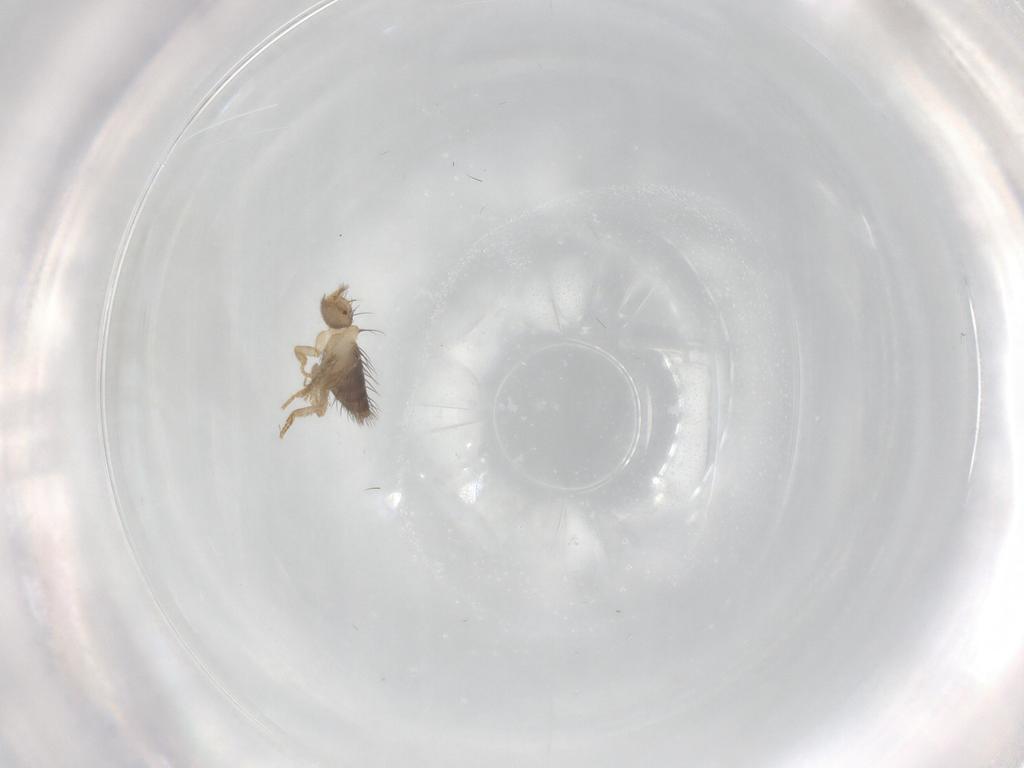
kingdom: Animalia
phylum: Arthropoda
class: Insecta
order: Diptera
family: Ceratopogonidae
